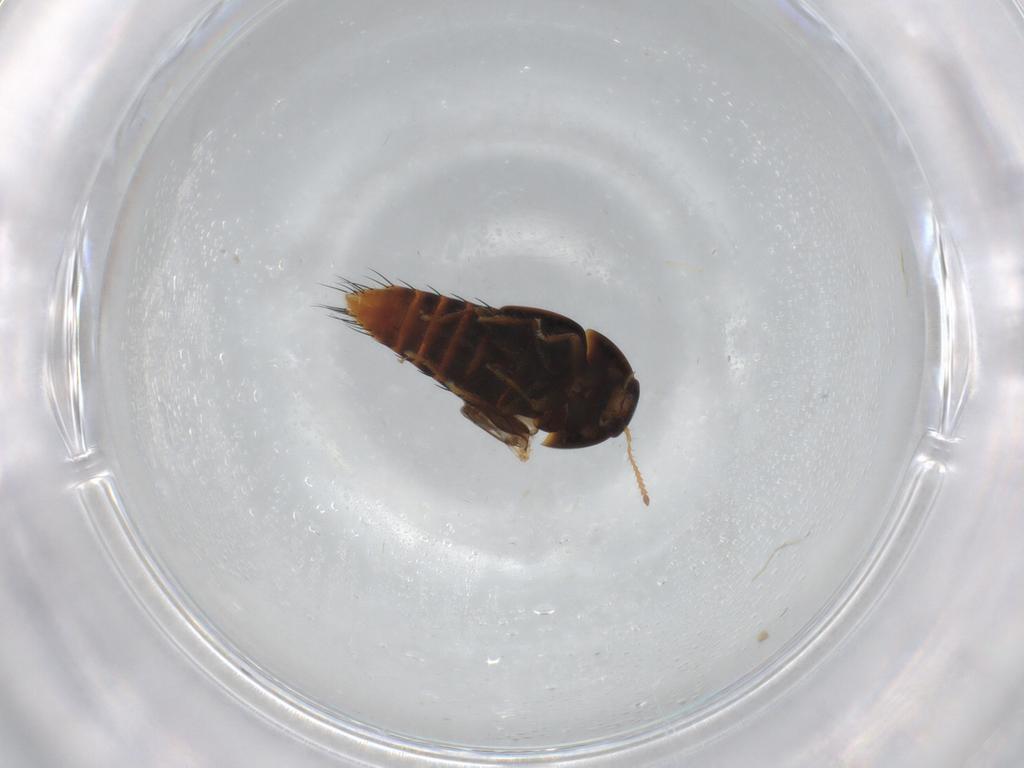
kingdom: Animalia
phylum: Arthropoda
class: Insecta
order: Coleoptera
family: Staphylinidae
